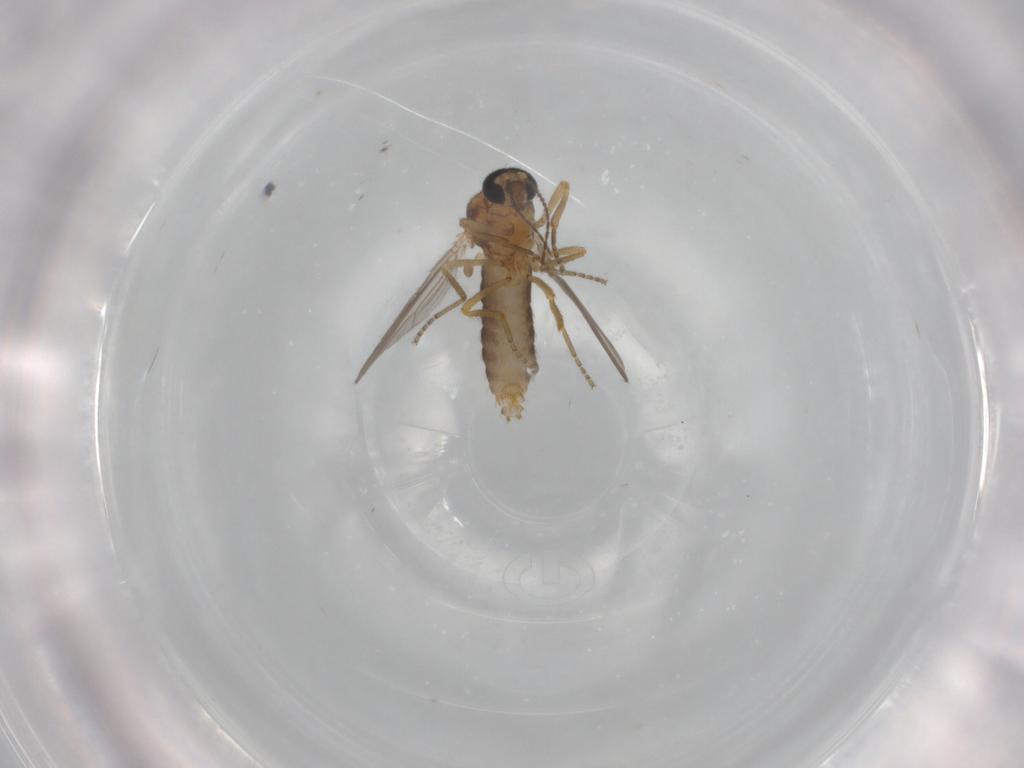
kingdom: Animalia
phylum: Arthropoda
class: Insecta
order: Diptera
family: Ceratopogonidae
